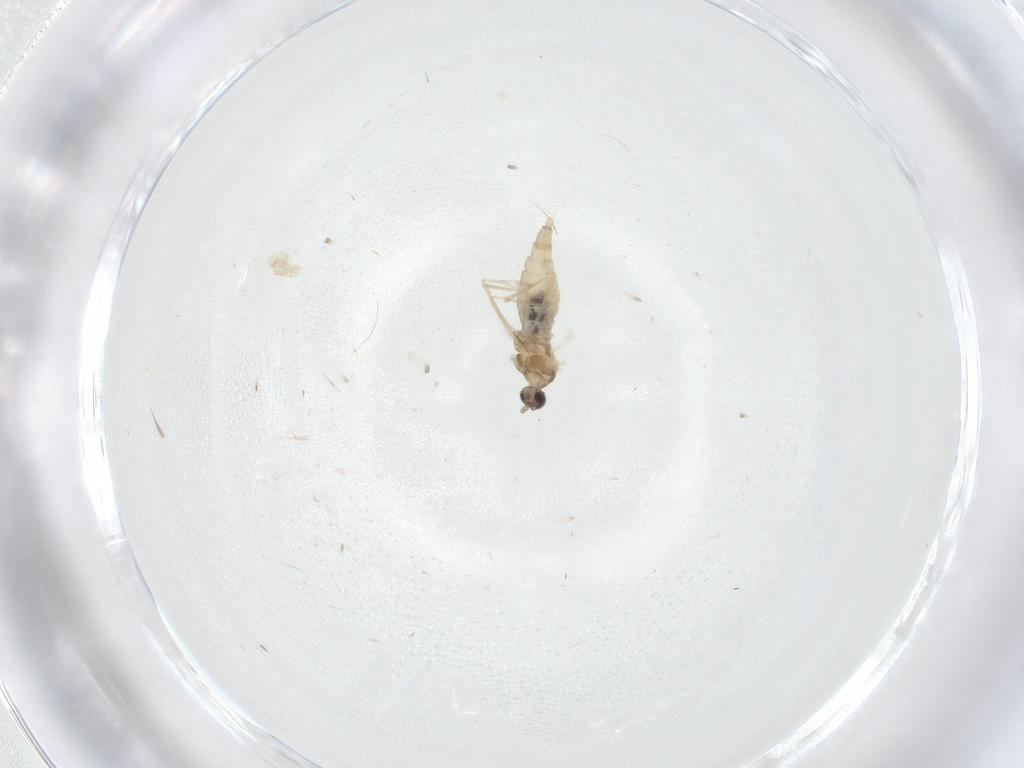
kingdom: Animalia
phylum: Arthropoda
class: Insecta
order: Diptera
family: Cecidomyiidae
